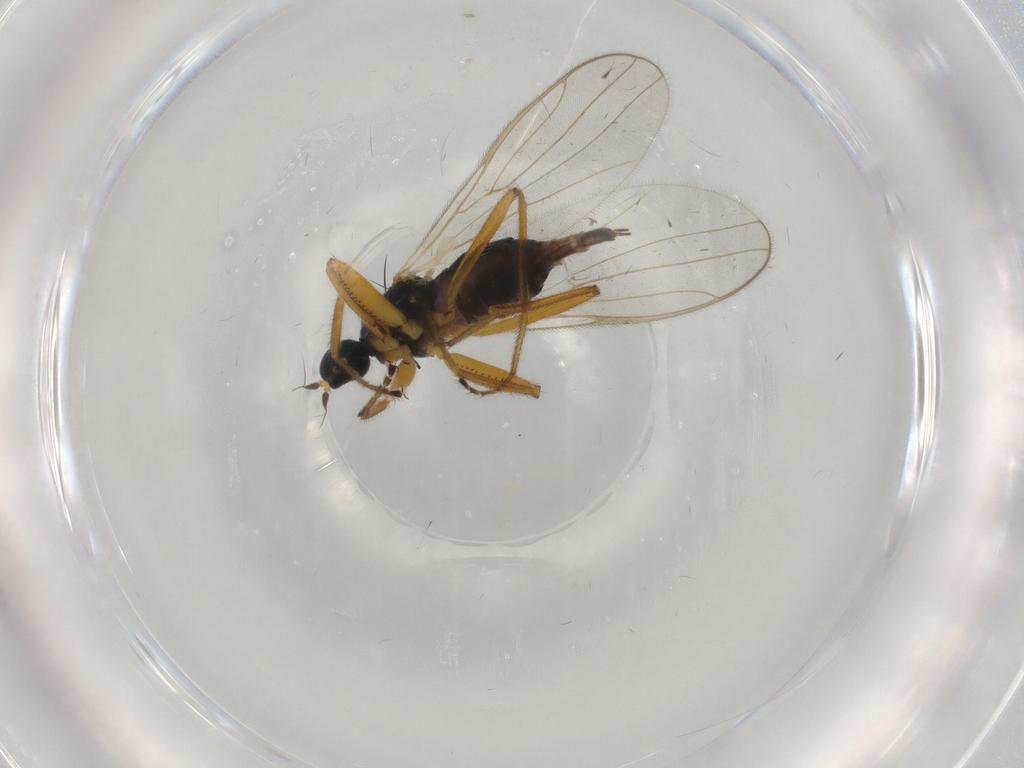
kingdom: Animalia
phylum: Arthropoda
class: Insecta
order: Diptera
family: Hybotidae
